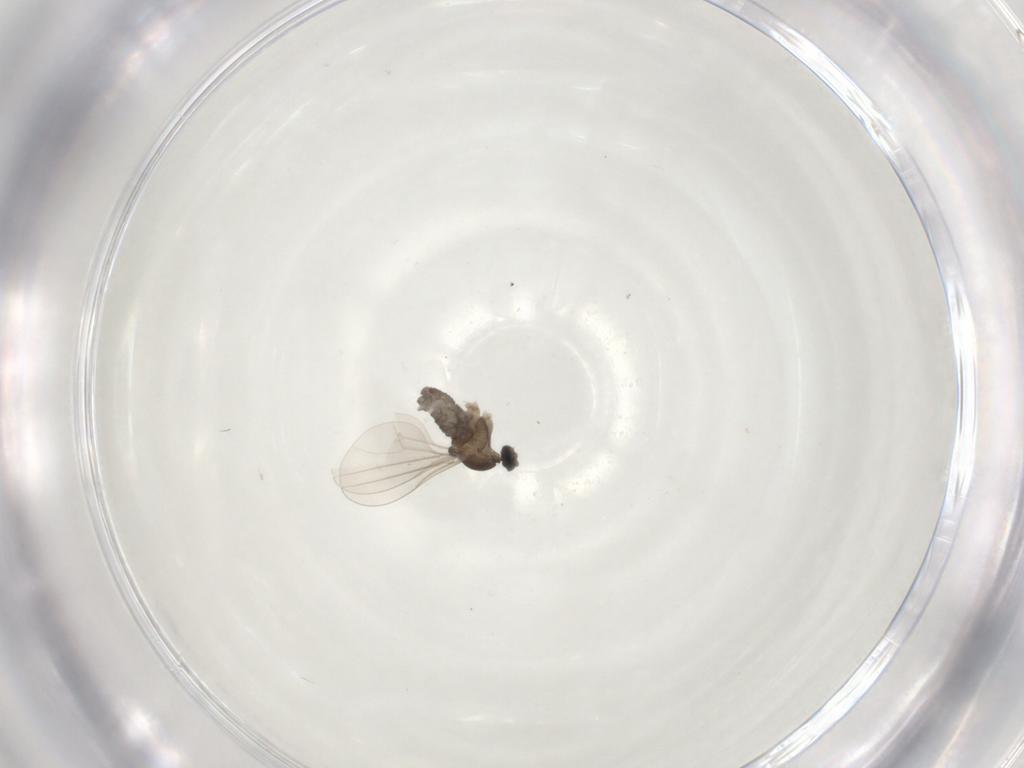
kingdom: Animalia
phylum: Arthropoda
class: Insecta
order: Diptera
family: Cecidomyiidae
